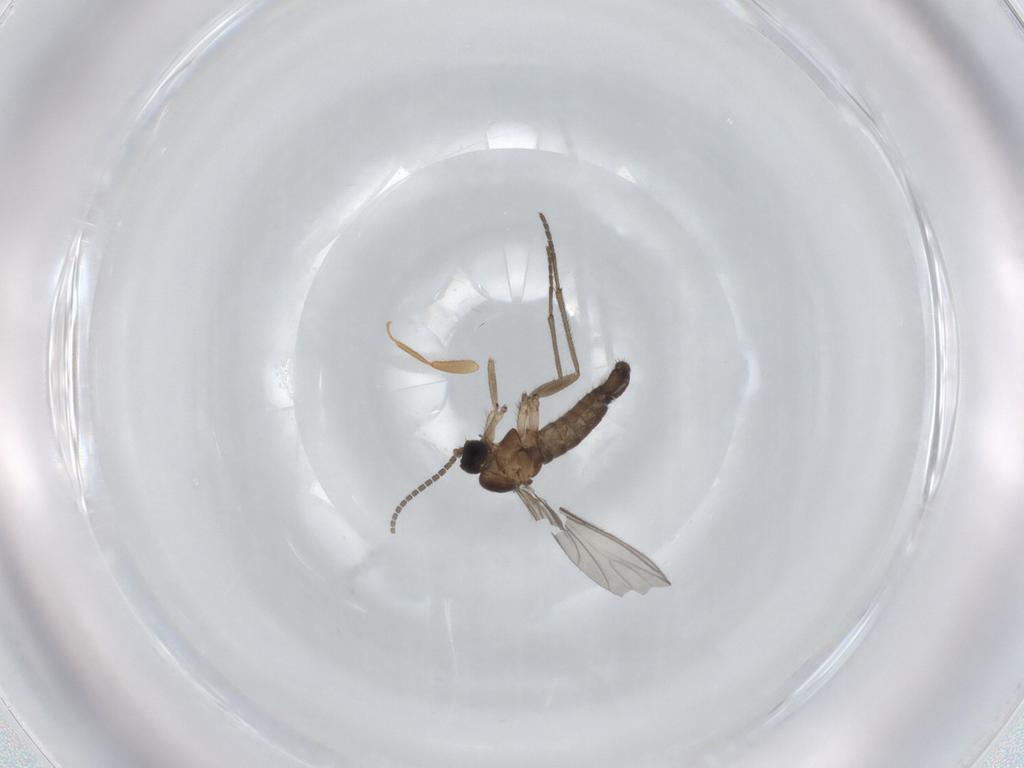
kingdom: Animalia
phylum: Arthropoda
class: Insecta
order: Diptera
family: Sciaridae
